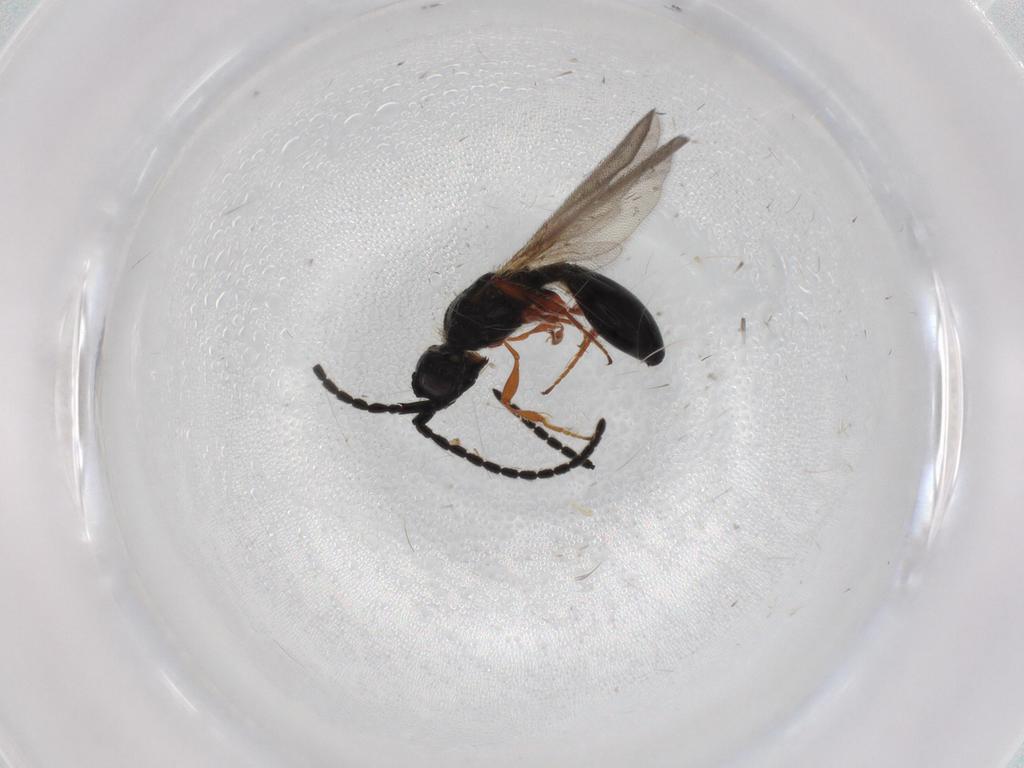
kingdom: Animalia
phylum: Arthropoda
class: Insecta
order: Hymenoptera
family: Diapriidae
